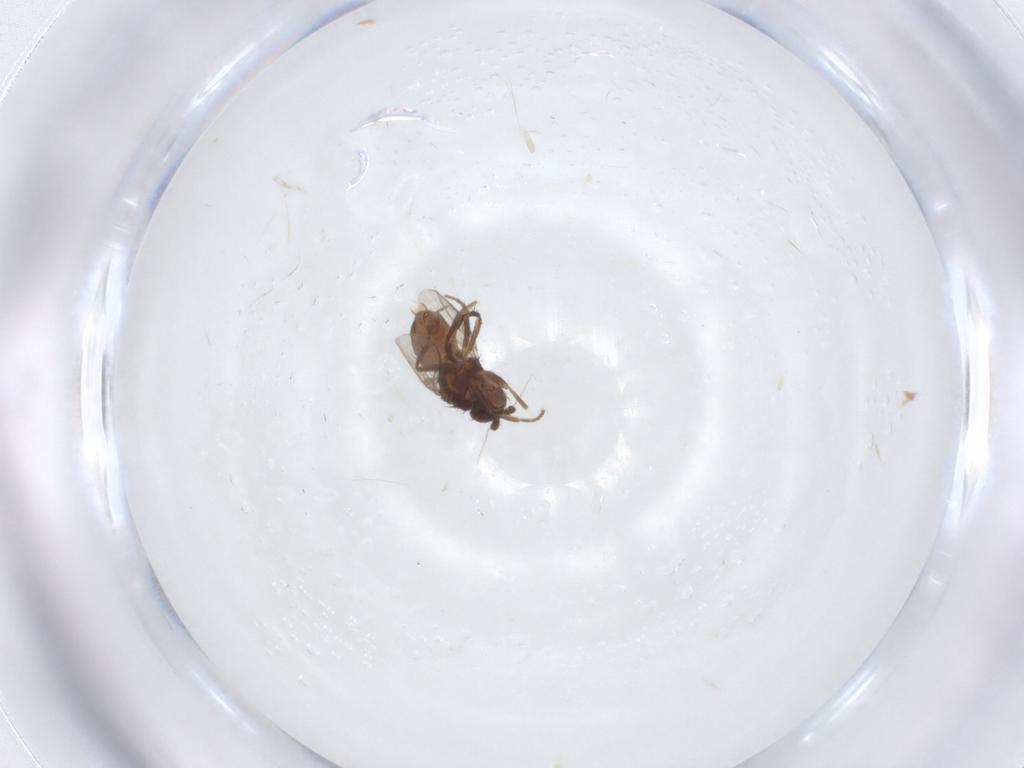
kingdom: Animalia
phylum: Arthropoda
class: Insecta
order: Diptera
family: Sphaeroceridae
